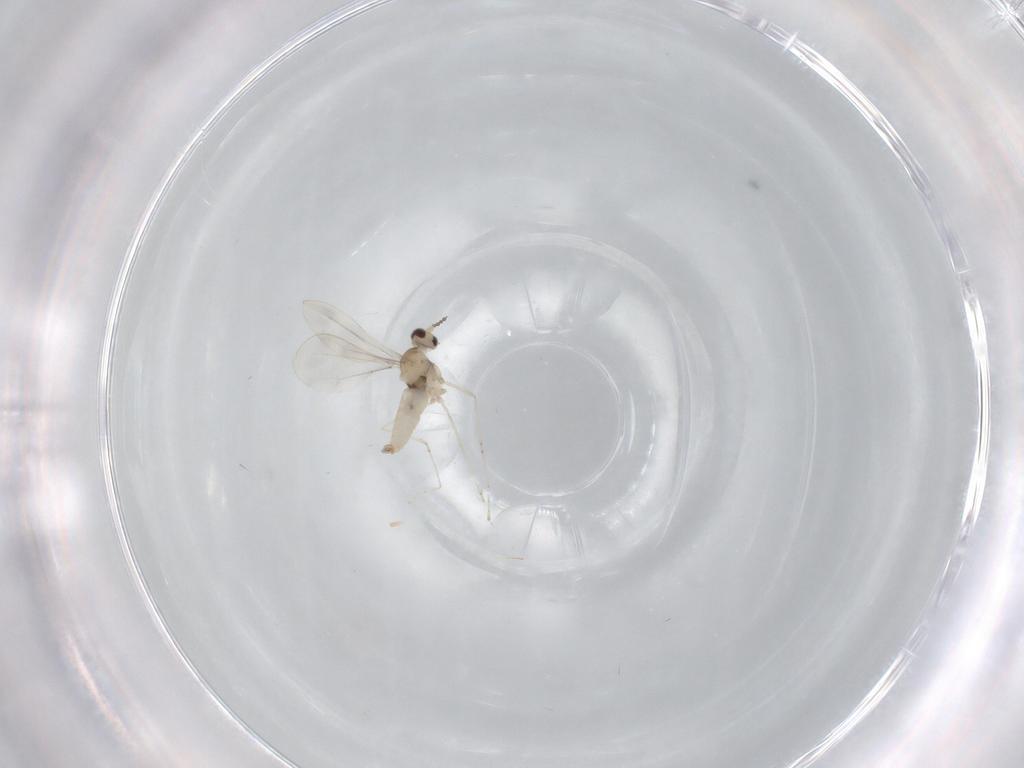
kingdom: Animalia
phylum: Arthropoda
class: Insecta
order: Diptera
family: Cecidomyiidae
